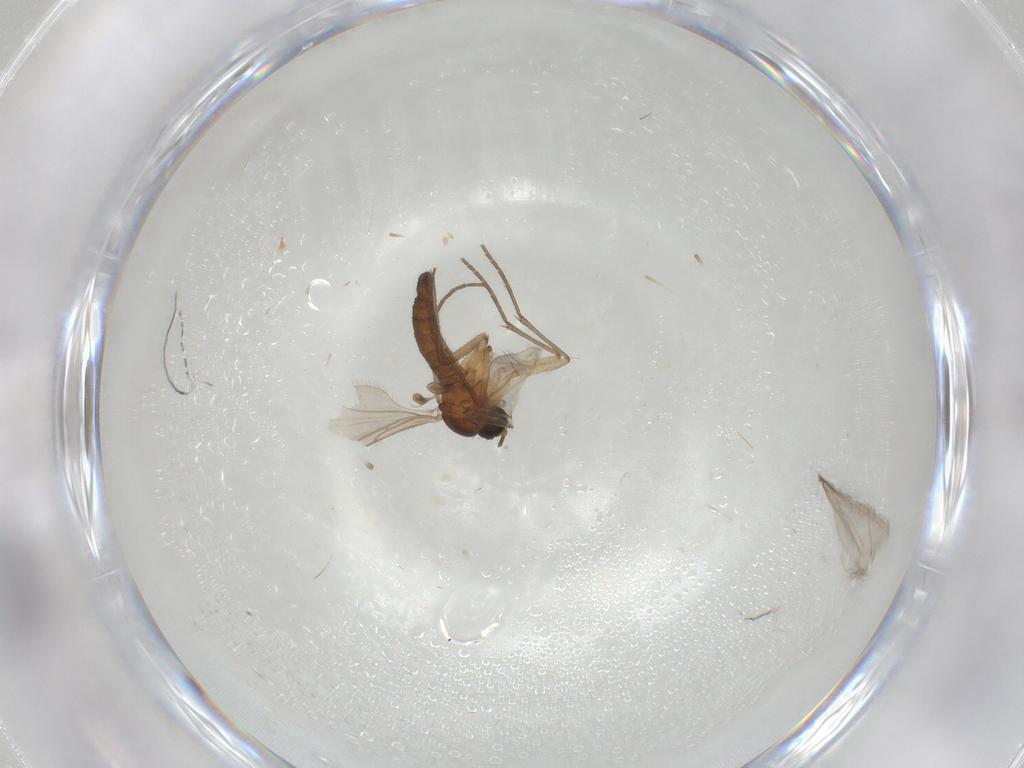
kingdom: Animalia
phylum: Arthropoda
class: Insecta
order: Diptera
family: Sciaridae
